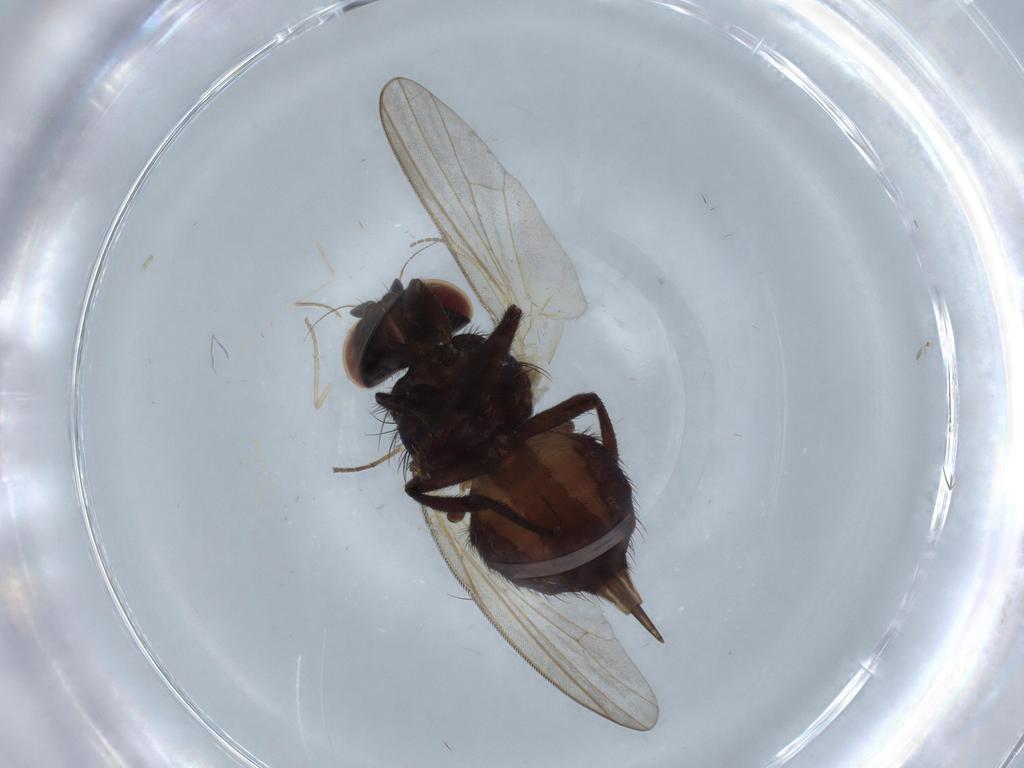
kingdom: Animalia
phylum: Arthropoda
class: Insecta
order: Diptera
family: Lonchaeidae
